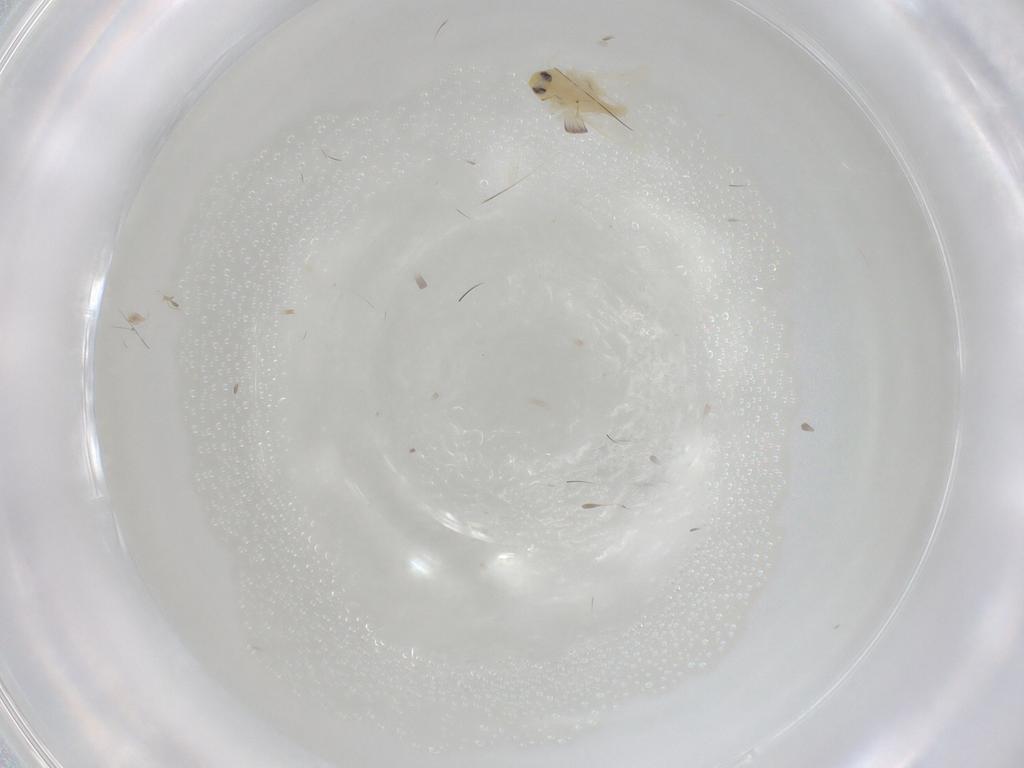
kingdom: Animalia
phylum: Arthropoda
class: Insecta
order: Hemiptera
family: Aleyrodidae
